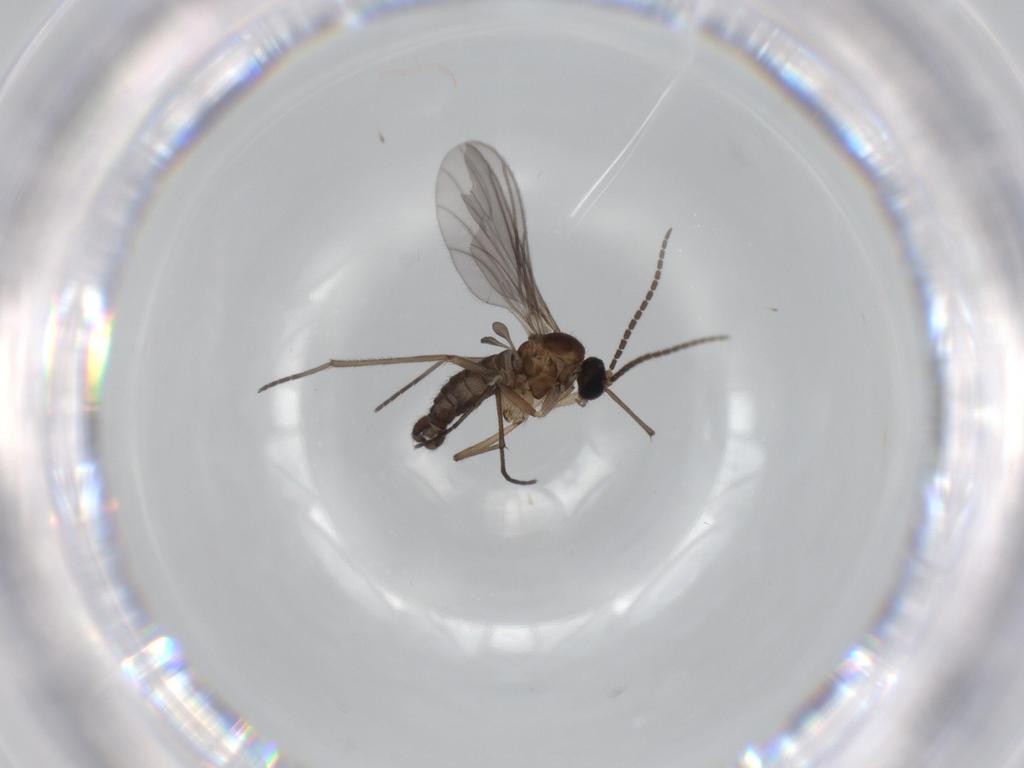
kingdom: Animalia
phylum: Arthropoda
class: Insecta
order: Diptera
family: Sciaridae
